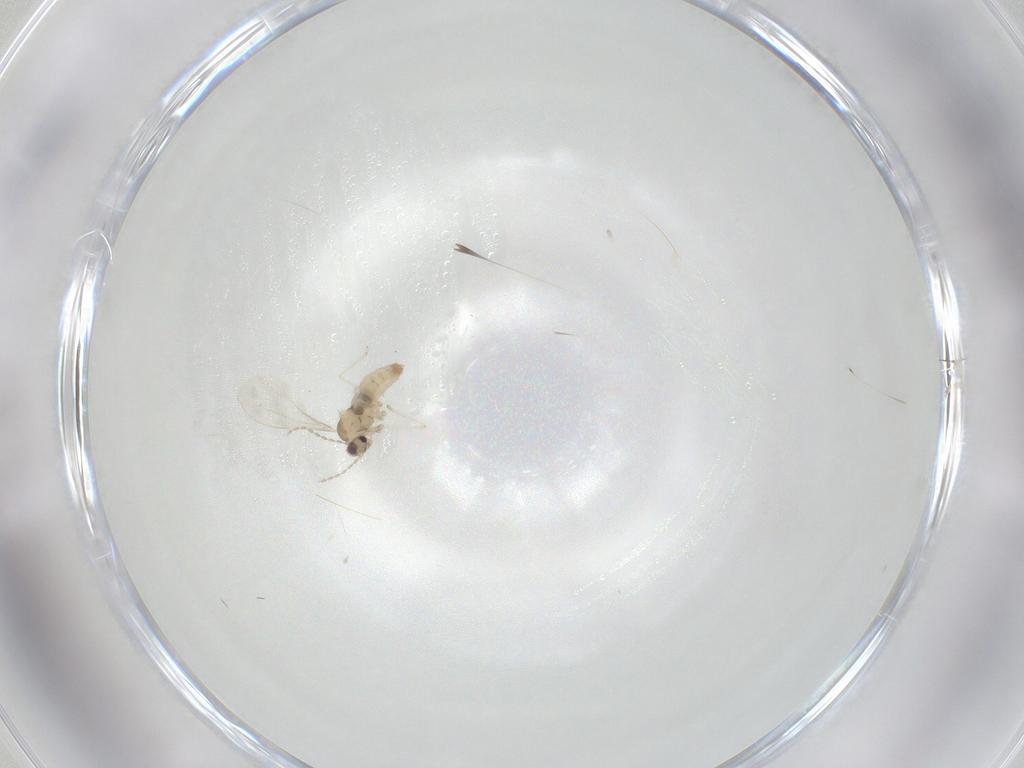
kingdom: Animalia
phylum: Arthropoda
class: Insecta
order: Diptera
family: Cecidomyiidae
